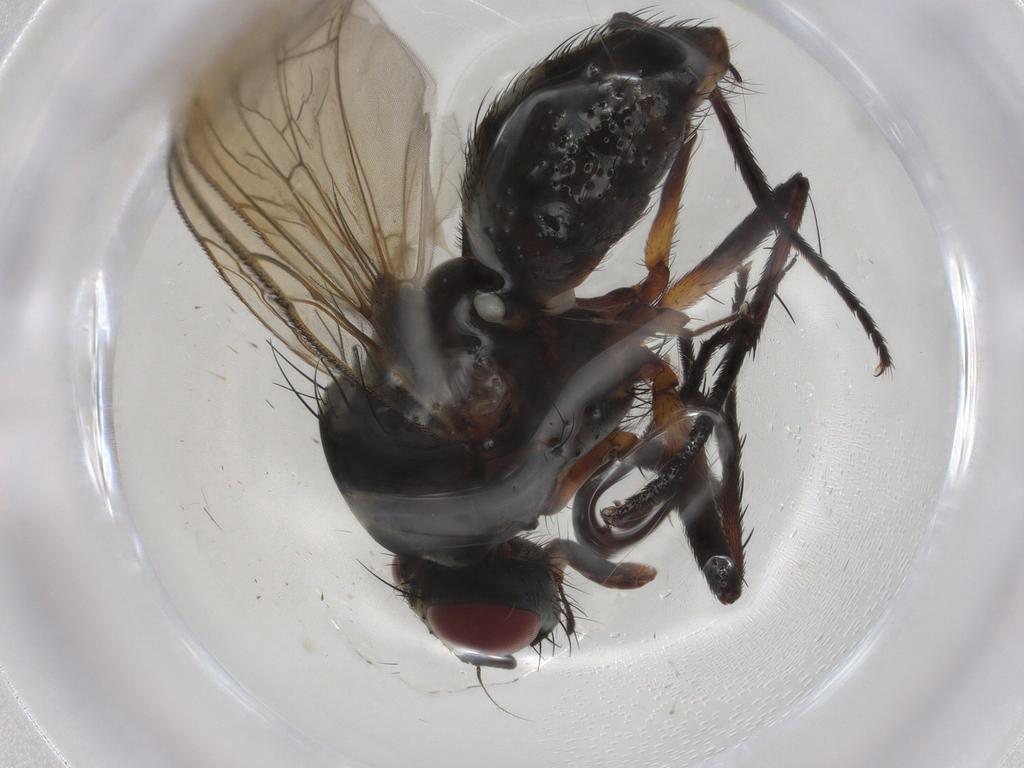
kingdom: Animalia
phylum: Arthropoda
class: Insecta
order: Diptera
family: Anthomyiidae
